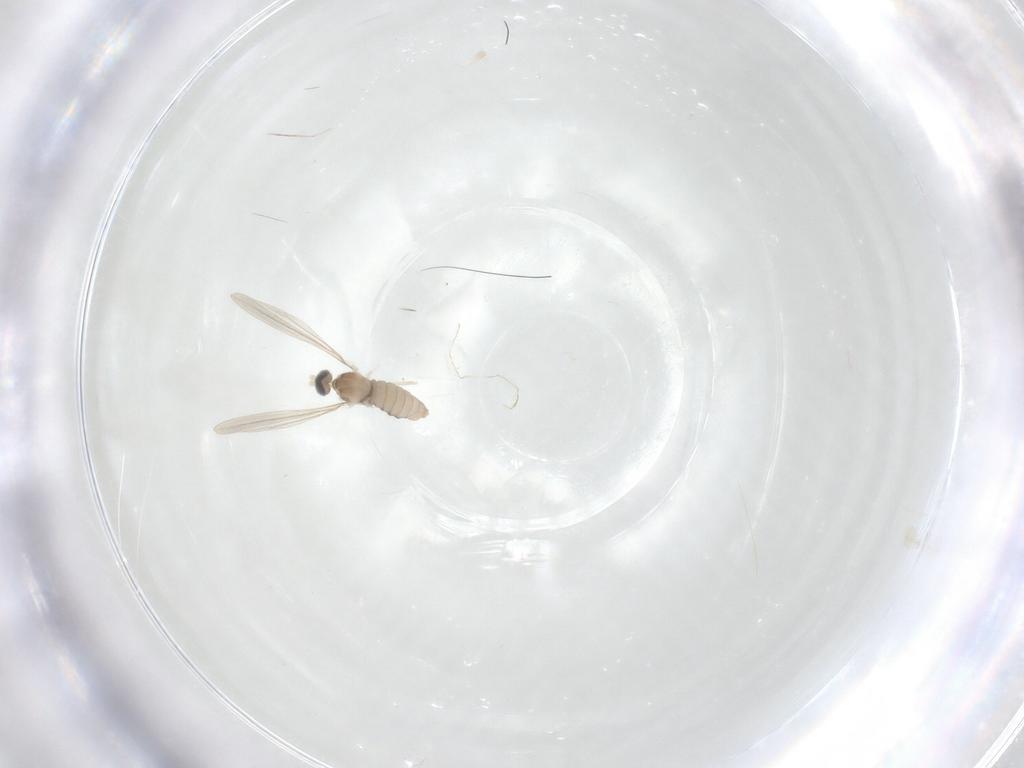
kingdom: Animalia
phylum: Arthropoda
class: Insecta
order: Diptera
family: Cecidomyiidae
